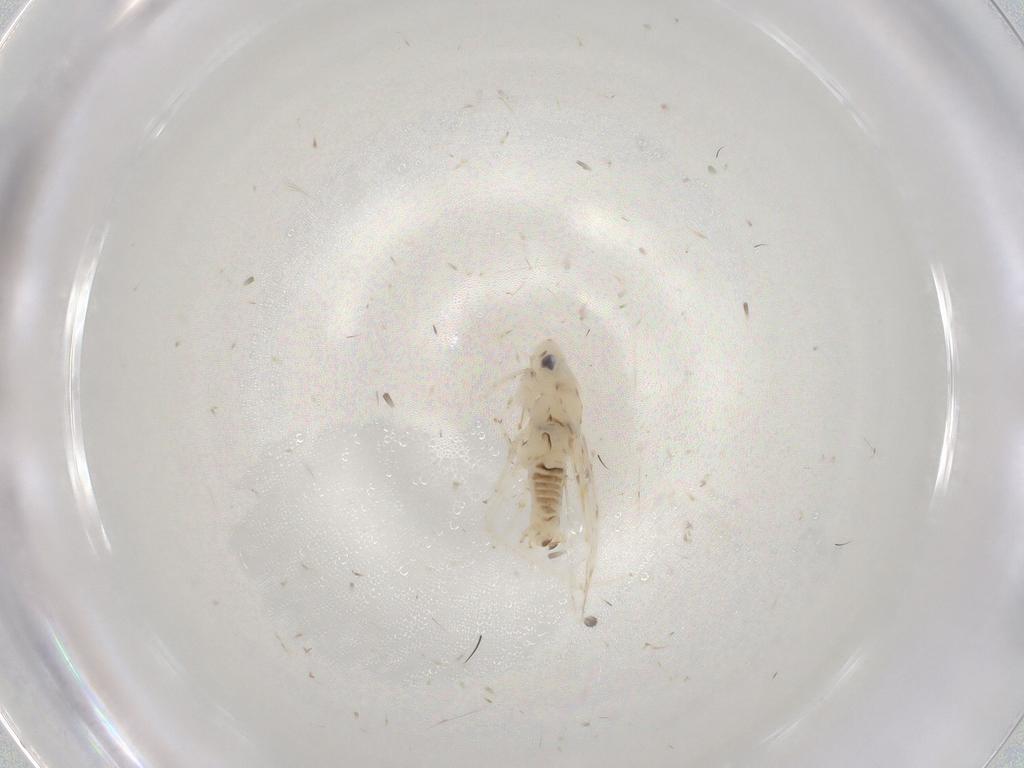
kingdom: Animalia
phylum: Arthropoda
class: Insecta
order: Hemiptera
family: Cicadellidae
